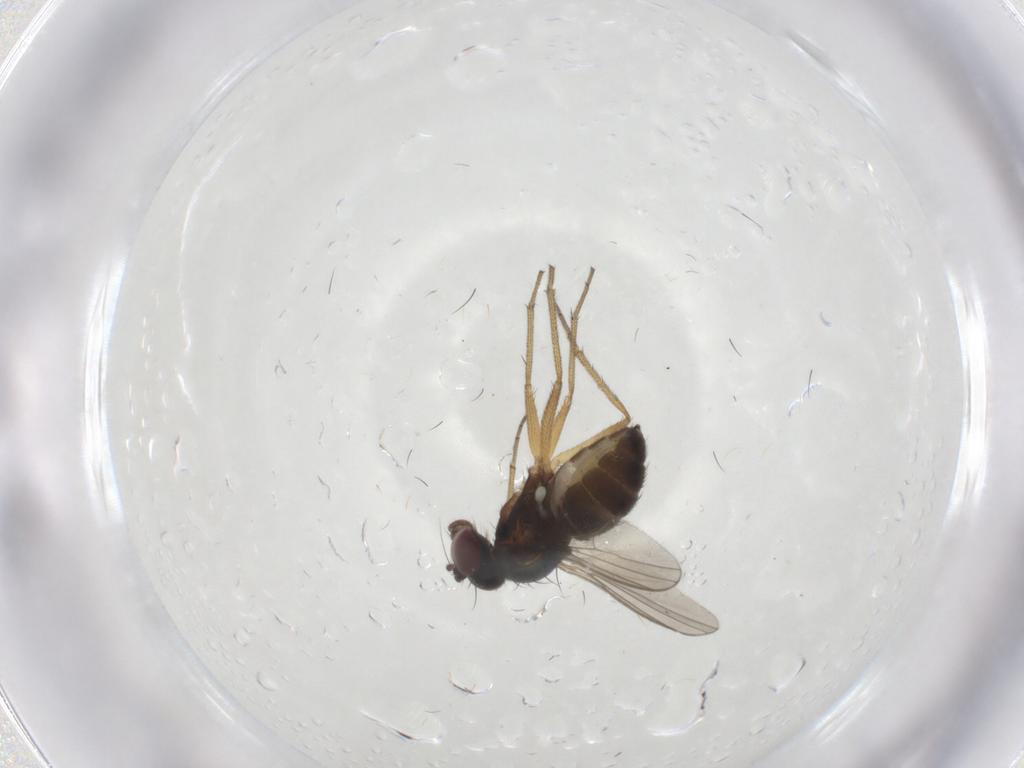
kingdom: Animalia
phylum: Arthropoda
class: Insecta
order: Diptera
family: Dolichopodidae
